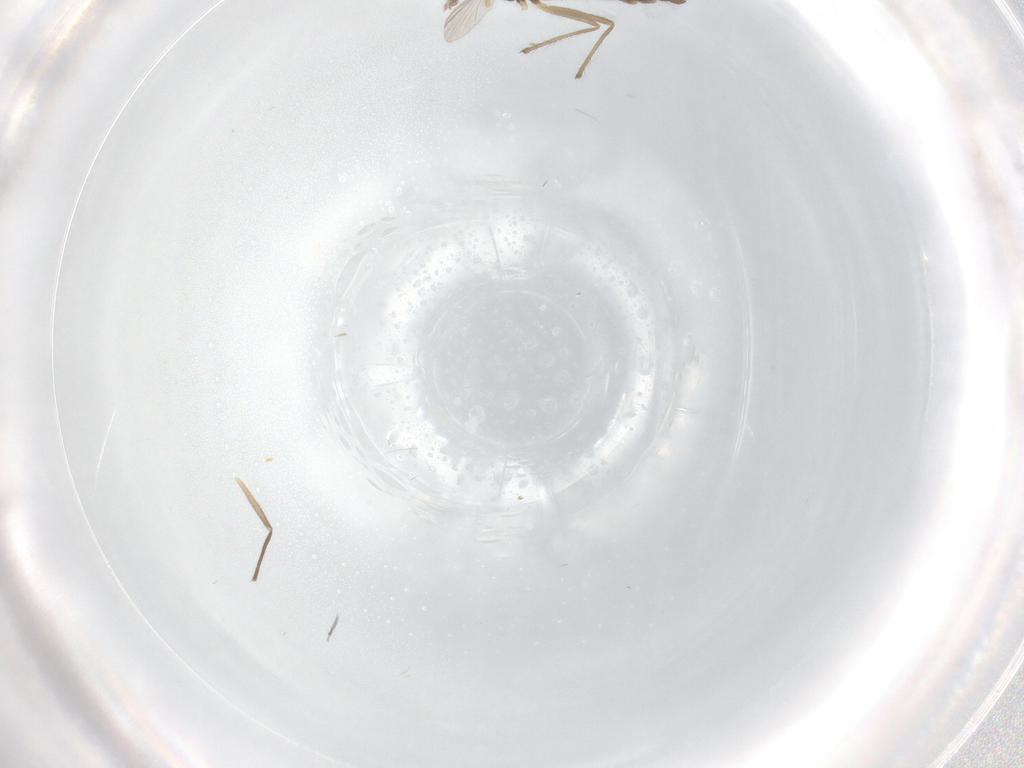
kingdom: Animalia
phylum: Arthropoda
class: Insecta
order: Diptera
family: Chironomidae
